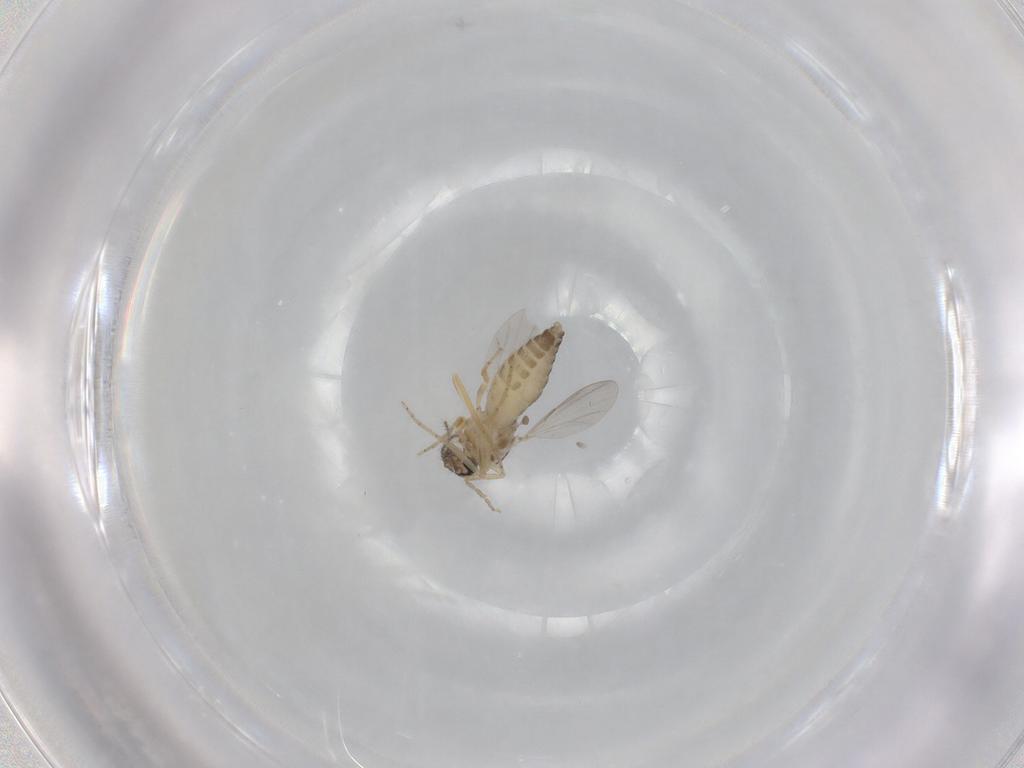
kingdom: Animalia
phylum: Arthropoda
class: Insecta
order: Diptera
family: Ceratopogonidae
